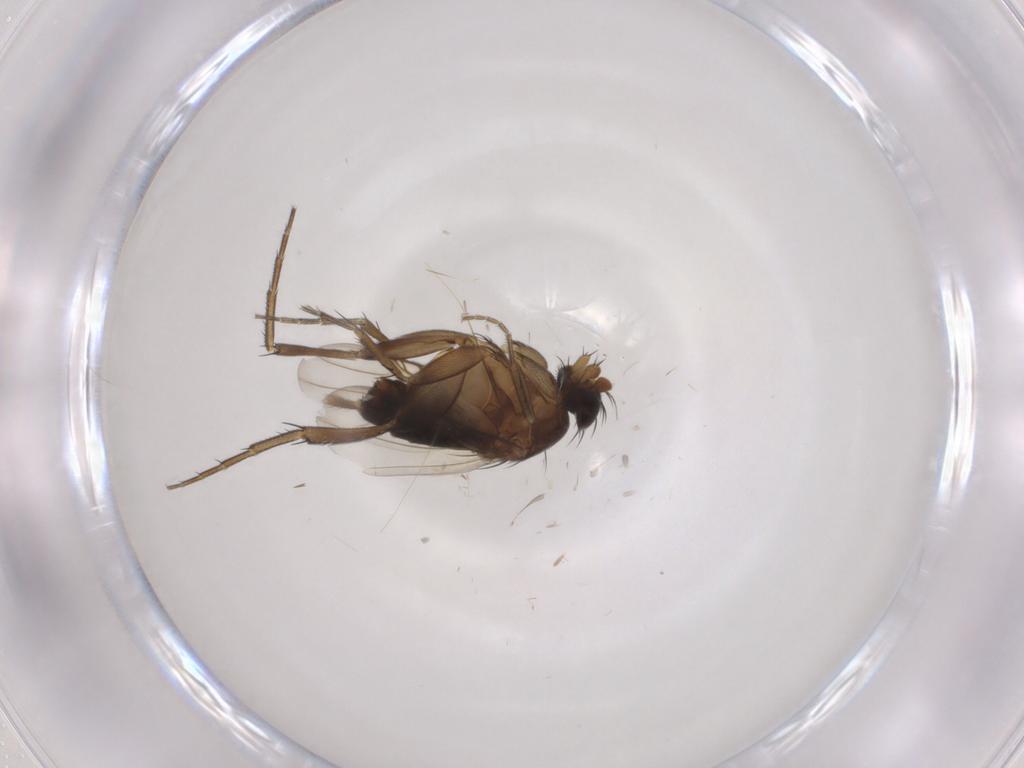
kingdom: Animalia
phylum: Arthropoda
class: Insecta
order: Diptera
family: Phoridae
